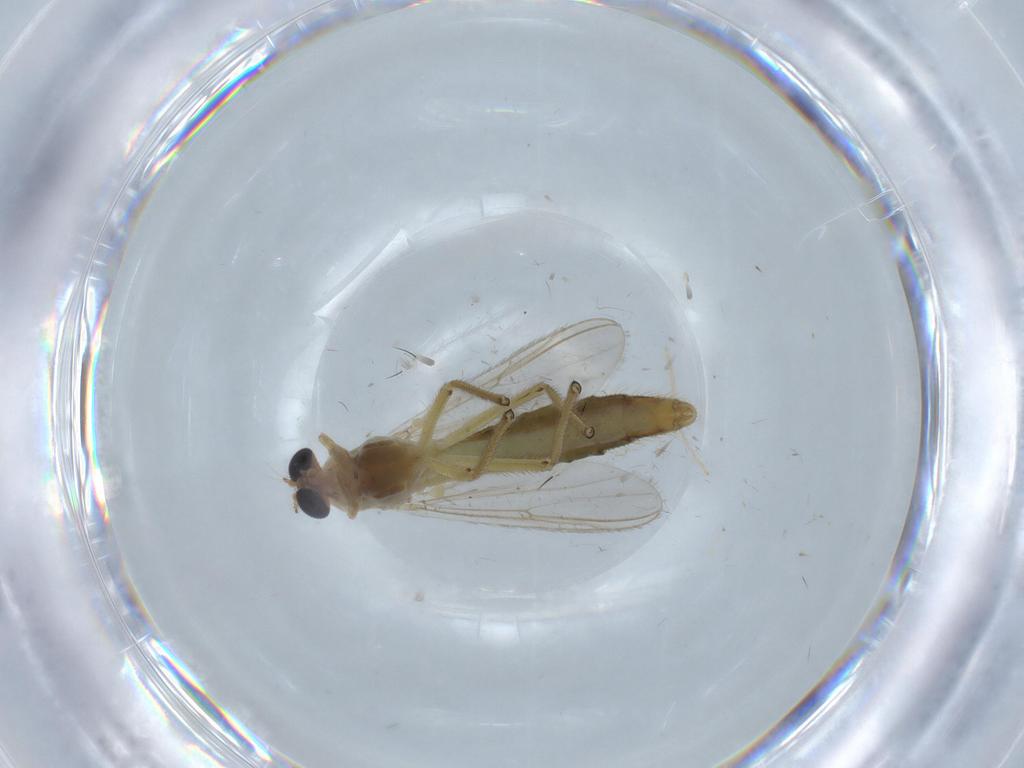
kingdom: Animalia
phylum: Arthropoda
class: Insecta
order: Diptera
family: Chironomidae
